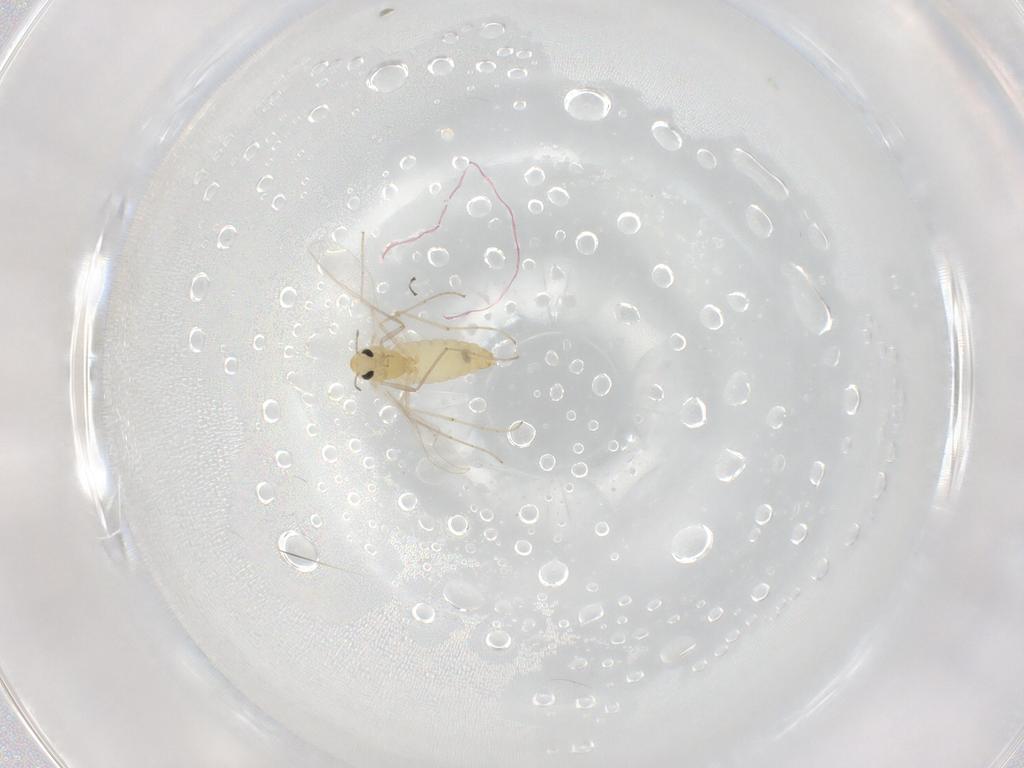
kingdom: Animalia
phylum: Arthropoda
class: Insecta
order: Diptera
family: Chironomidae
